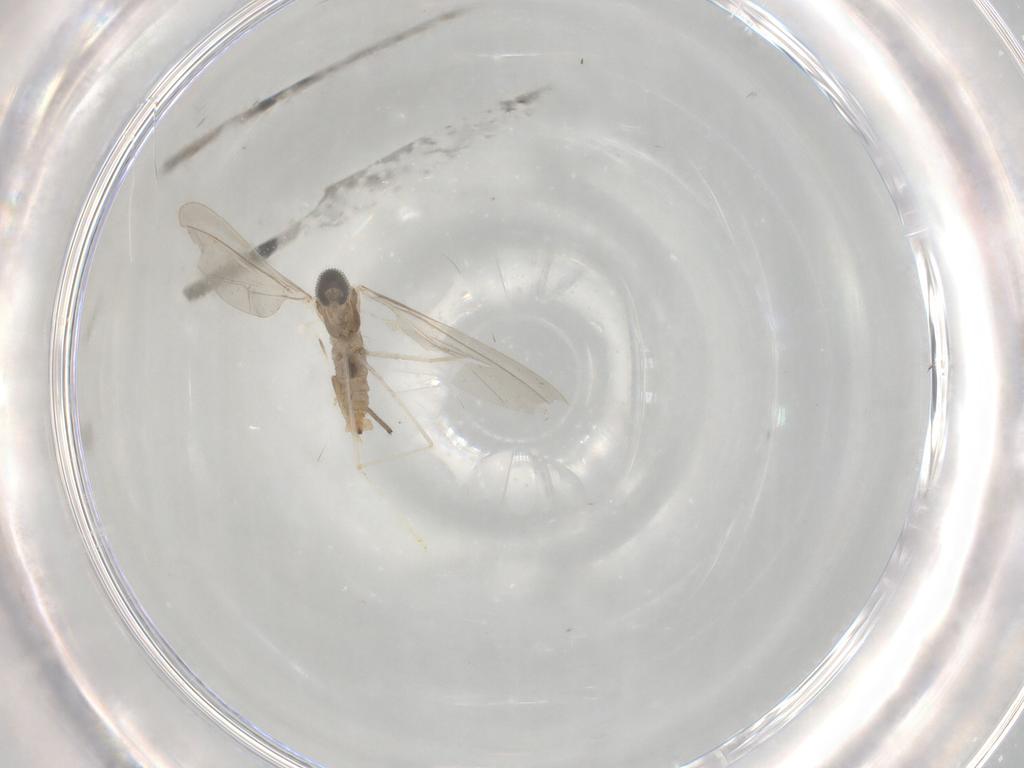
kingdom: Animalia
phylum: Arthropoda
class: Insecta
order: Diptera
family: Cecidomyiidae
